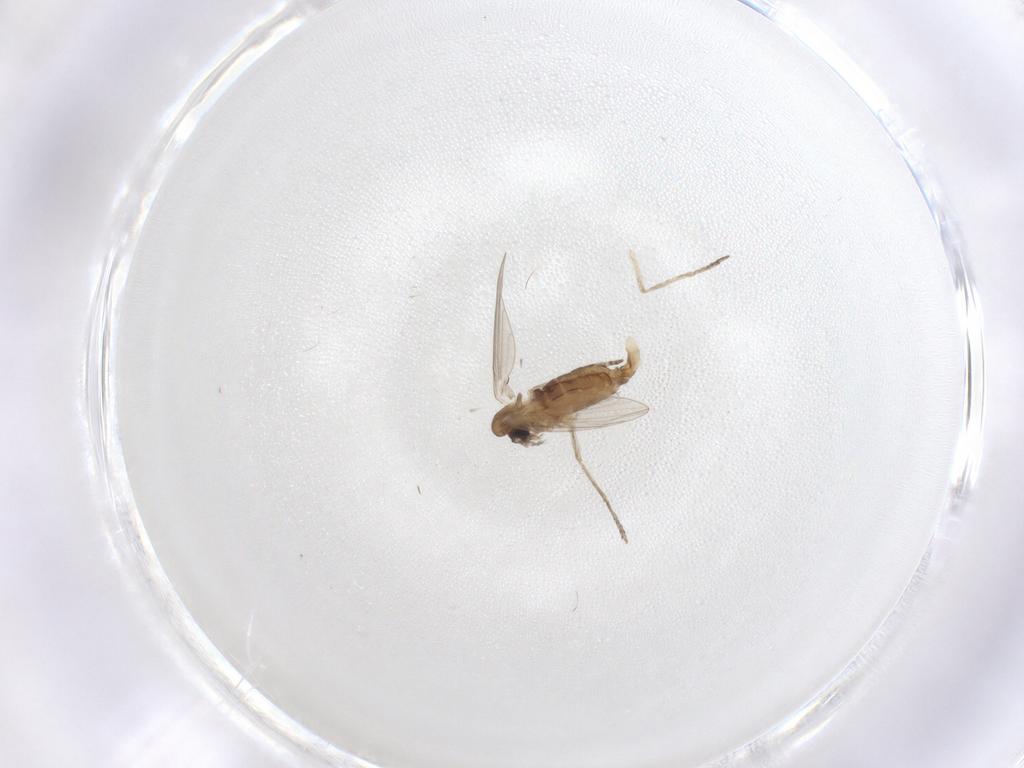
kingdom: Animalia
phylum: Arthropoda
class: Insecta
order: Diptera
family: Psychodidae
